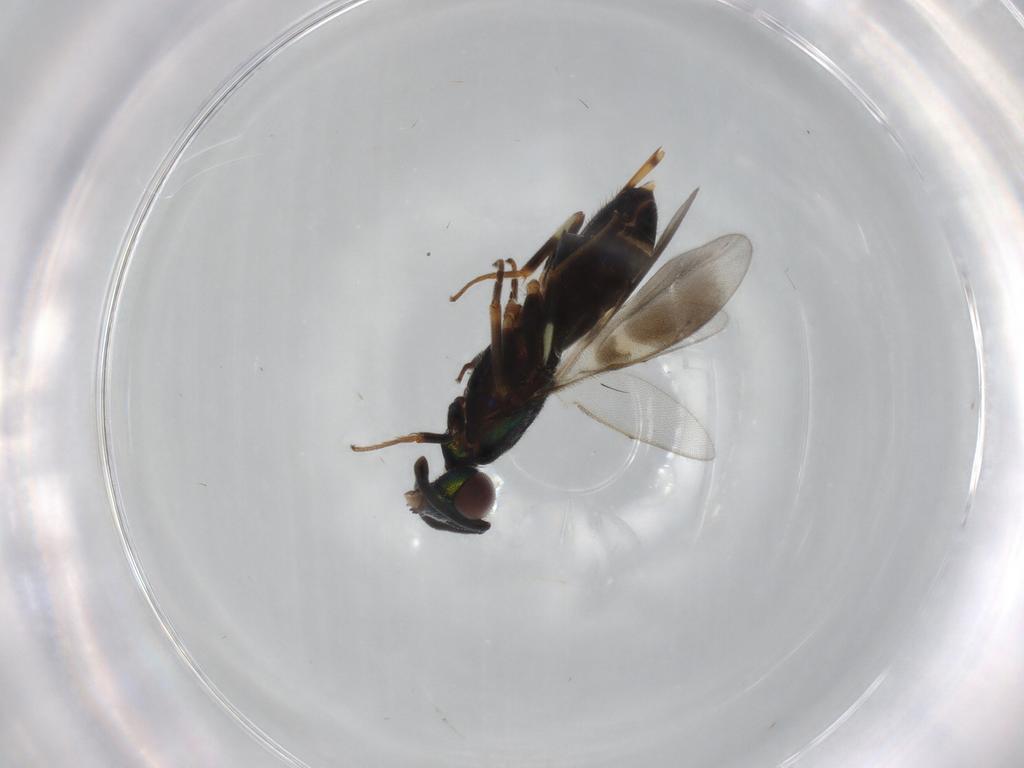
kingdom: Animalia
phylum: Arthropoda
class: Insecta
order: Hymenoptera
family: Eupelmidae
